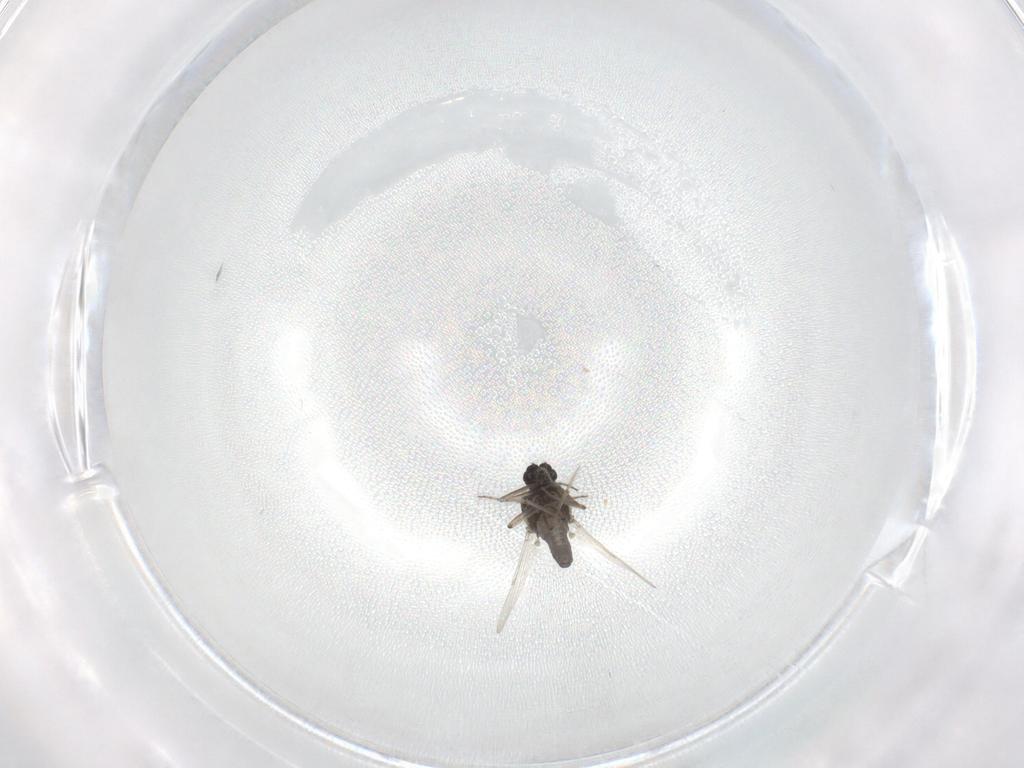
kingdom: Animalia
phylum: Arthropoda
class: Insecta
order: Diptera
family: Ceratopogonidae
